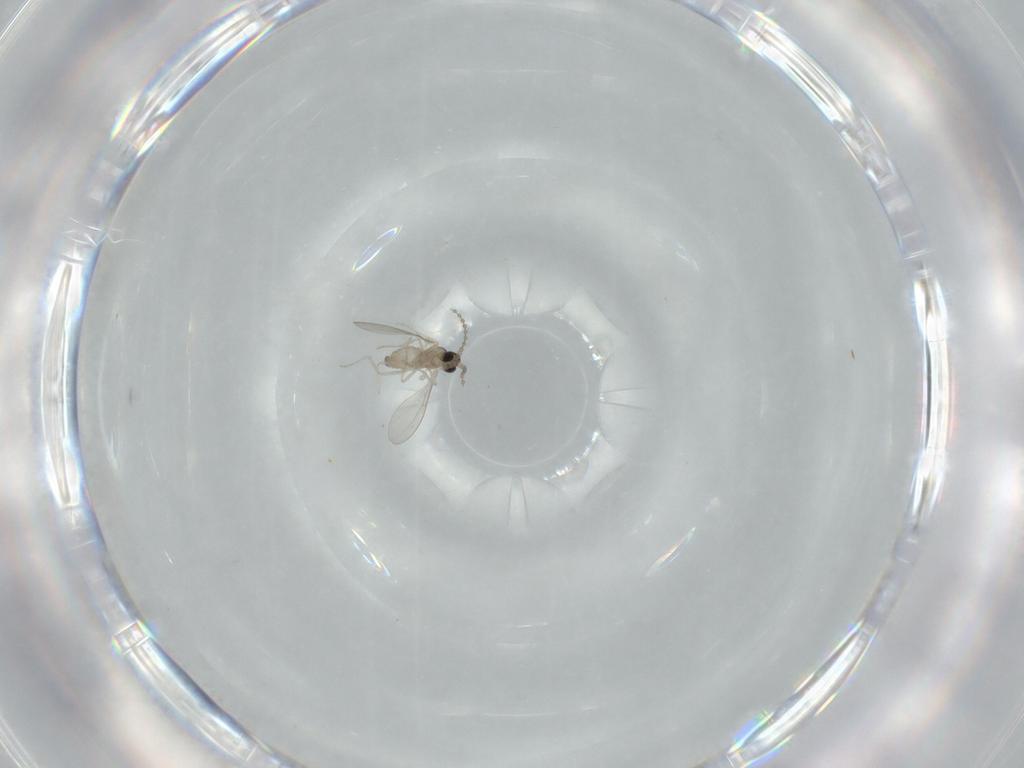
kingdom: Animalia
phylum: Arthropoda
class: Insecta
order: Diptera
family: Cecidomyiidae
